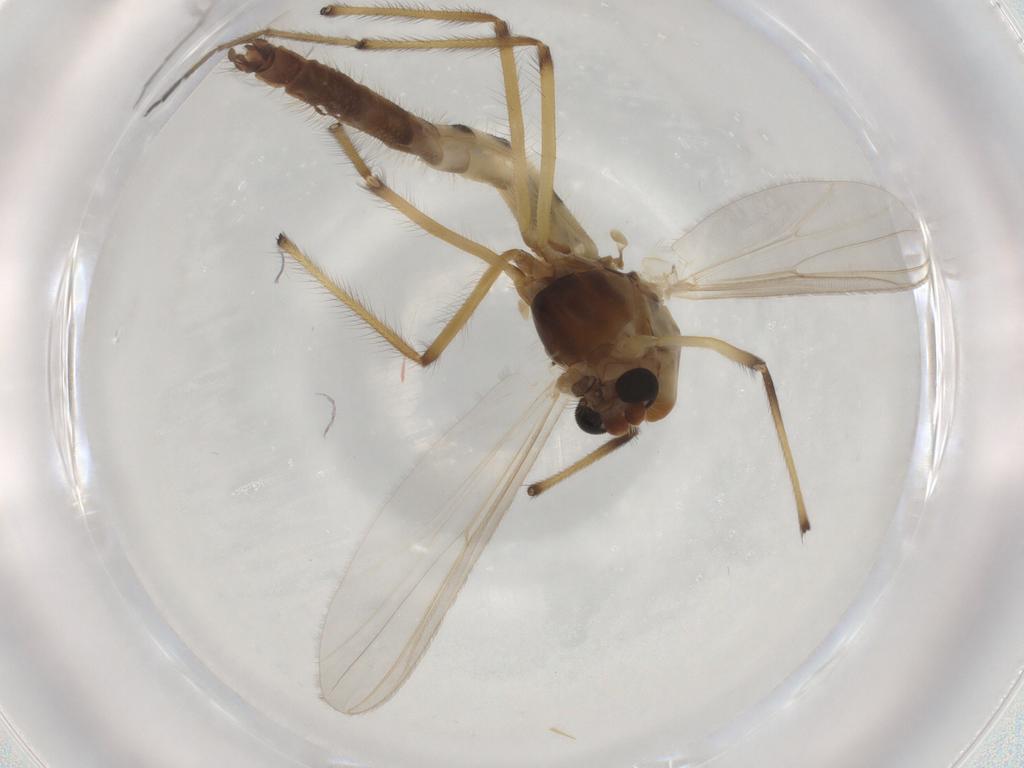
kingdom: Animalia
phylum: Arthropoda
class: Insecta
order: Diptera
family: Chironomidae
